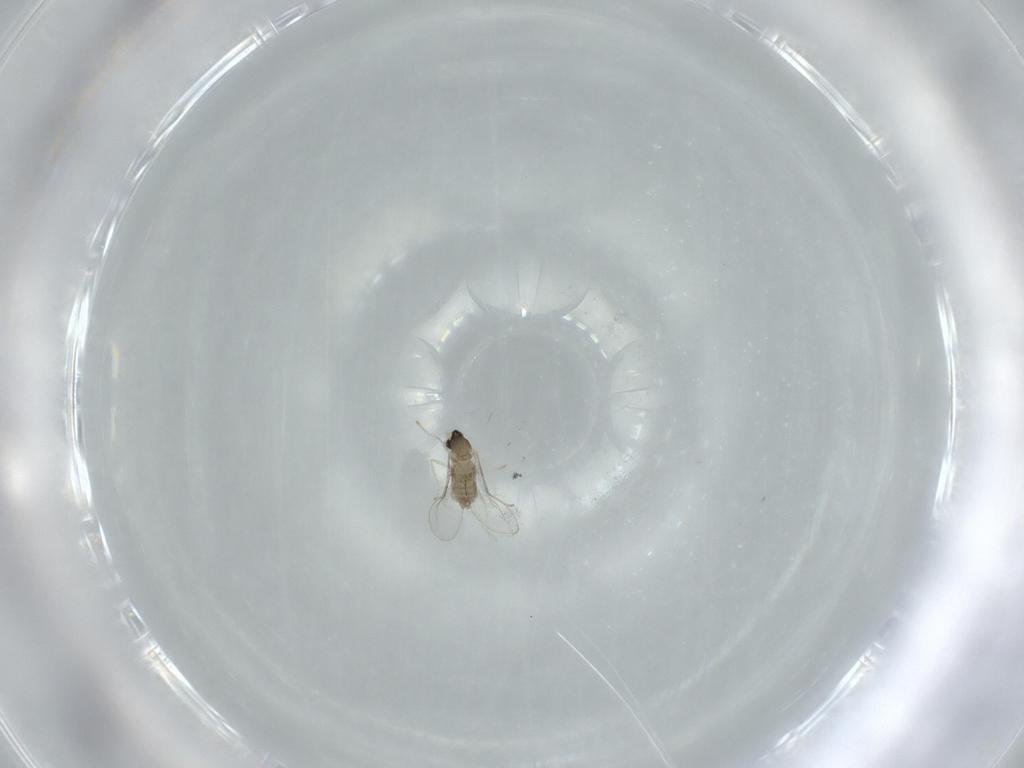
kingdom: Animalia
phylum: Arthropoda
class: Insecta
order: Diptera
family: Cecidomyiidae
